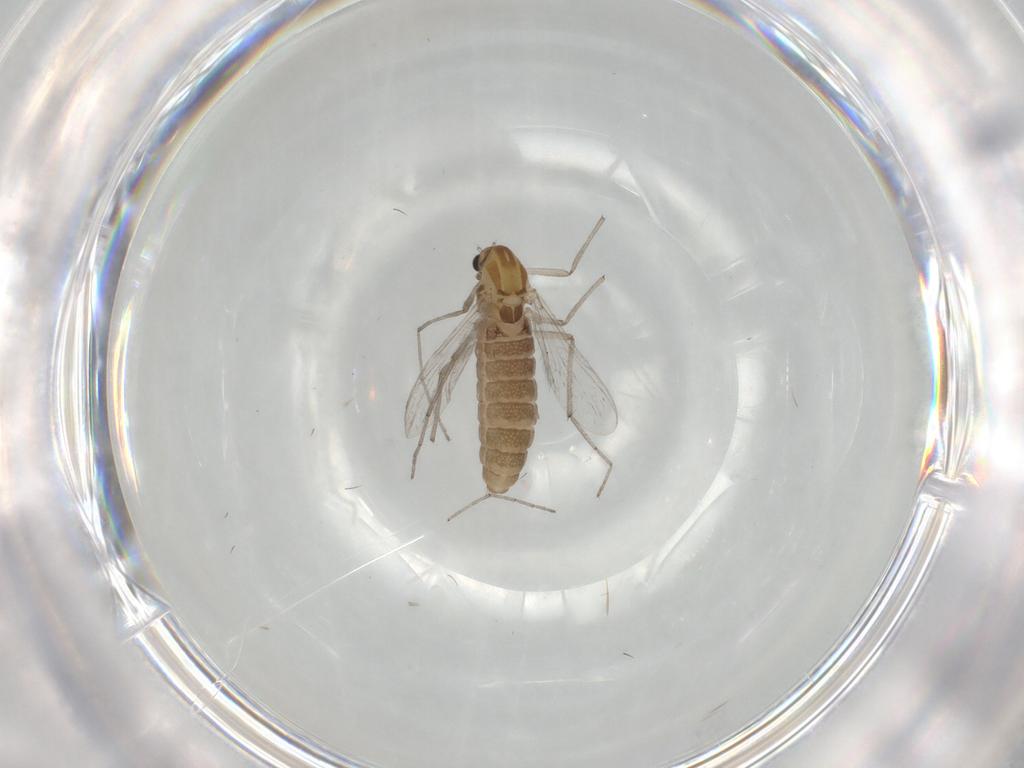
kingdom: Animalia
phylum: Arthropoda
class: Insecta
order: Diptera
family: Chironomidae
